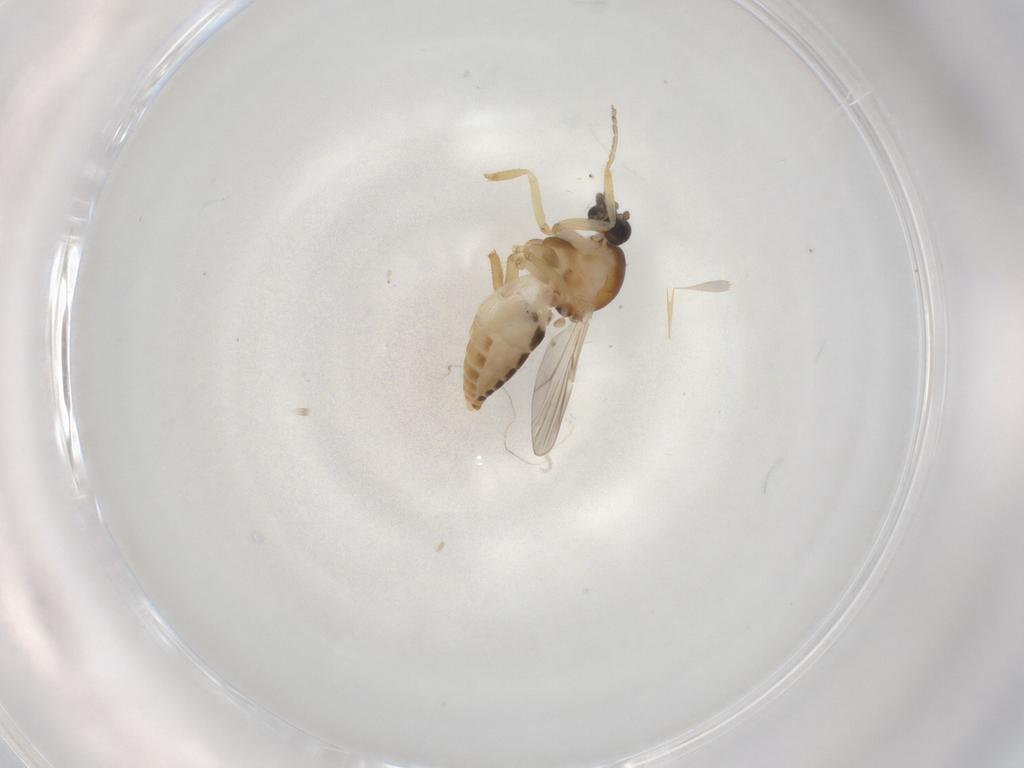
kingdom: Animalia
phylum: Arthropoda
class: Insecta
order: Diptera
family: Ceratopogonidae
